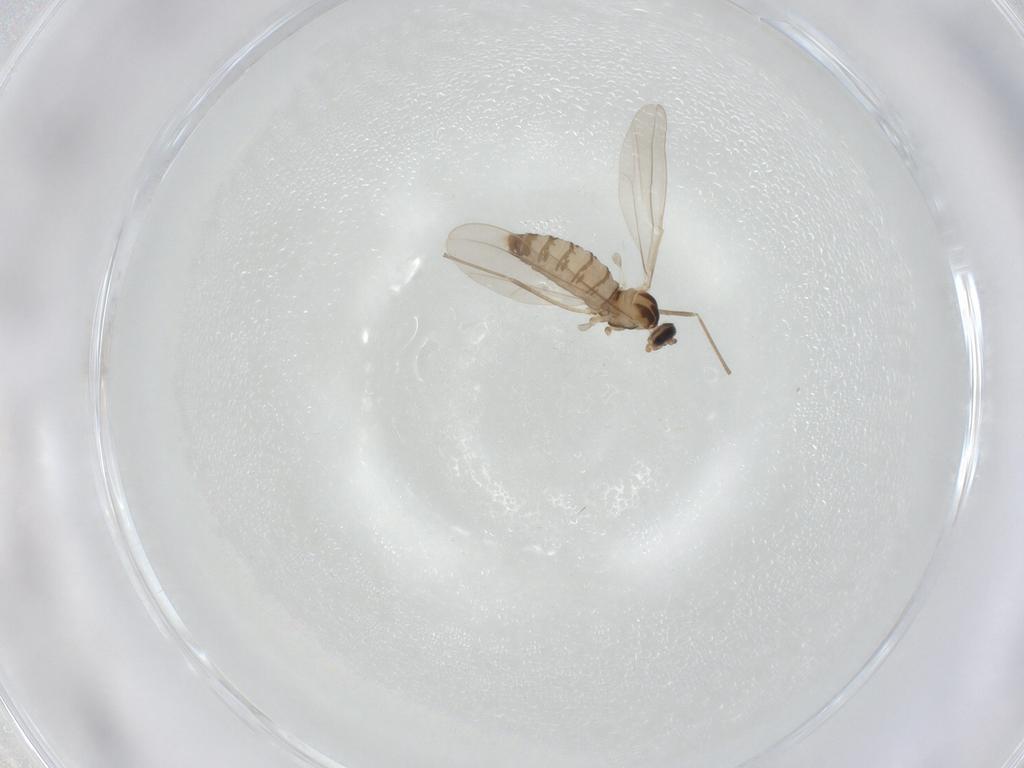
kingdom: Animalia
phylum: Arthropoda
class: Insecta
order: Diptera
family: Cecidomyiidae
